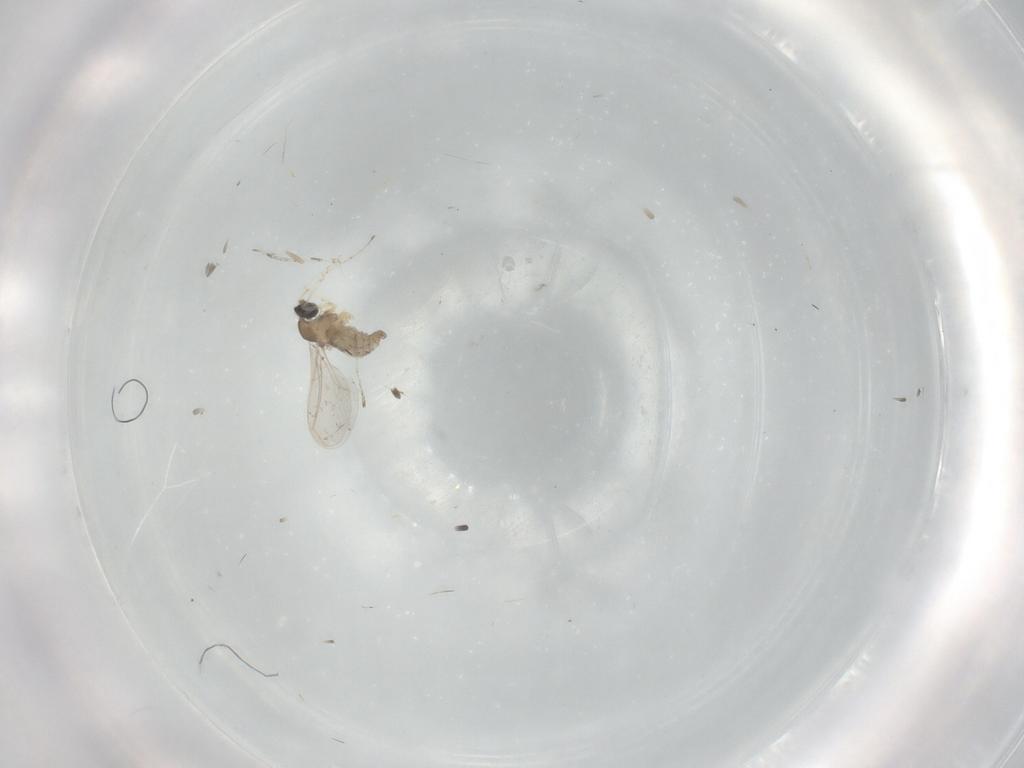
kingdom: Animalia
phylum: Arthropoda
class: Insecta
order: Diptera
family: Cecidomyiidae
